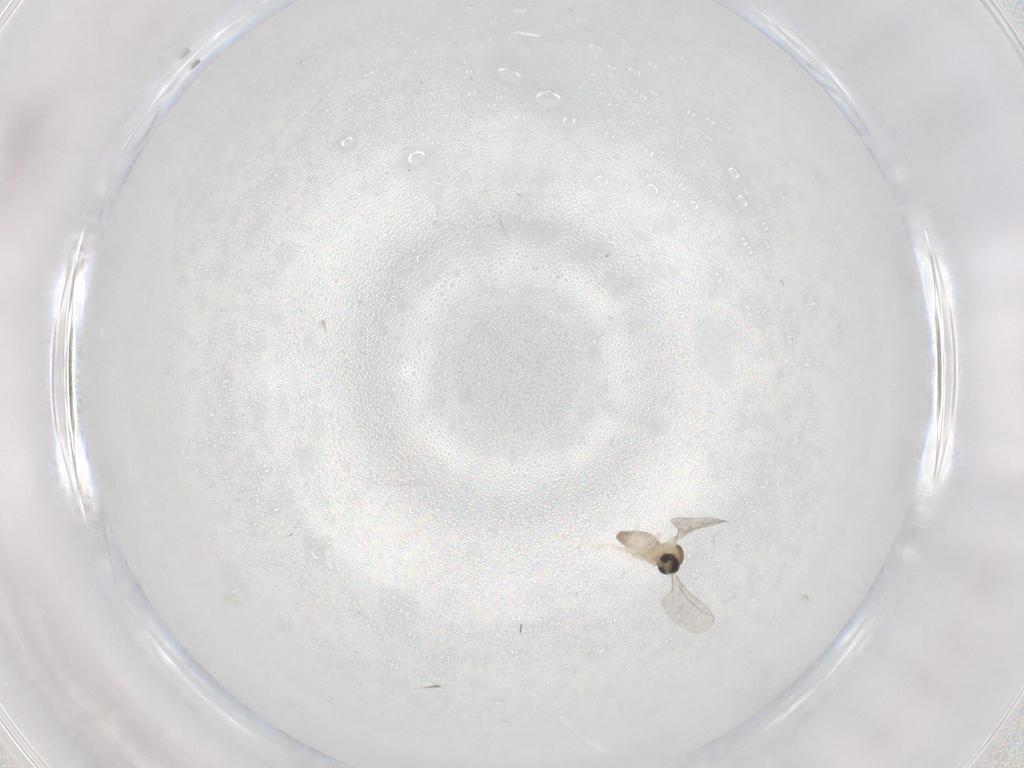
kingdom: Animalia
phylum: Arthropoda
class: Insecta
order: Diptera
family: Cecidomyiidae
